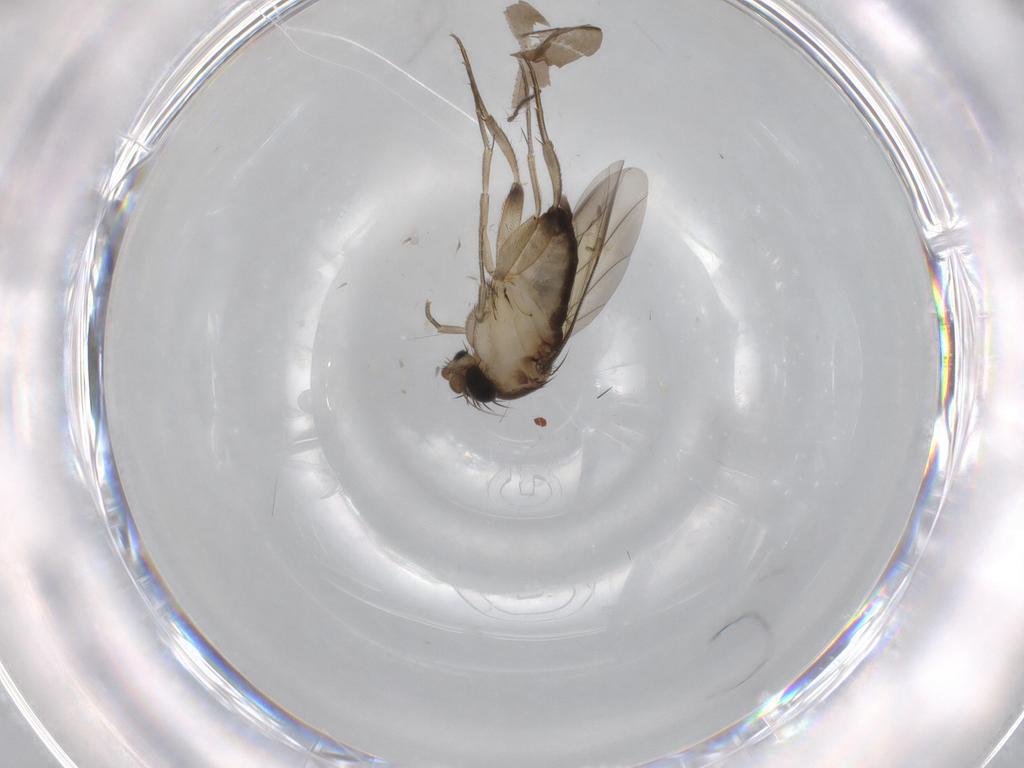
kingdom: Animalia
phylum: Arthropoda
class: Insecta
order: Diptera
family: Phoridae
